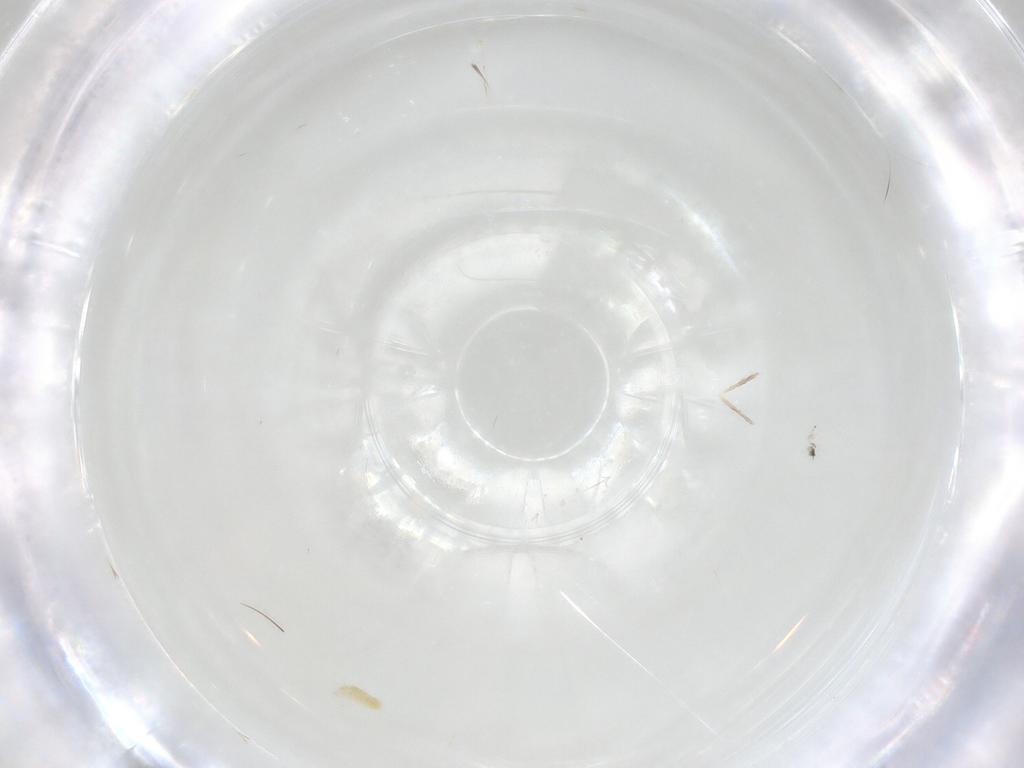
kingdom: Animalia
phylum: Arthropoda
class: Arachnida
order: Trombidiformes
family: Eupodidae
